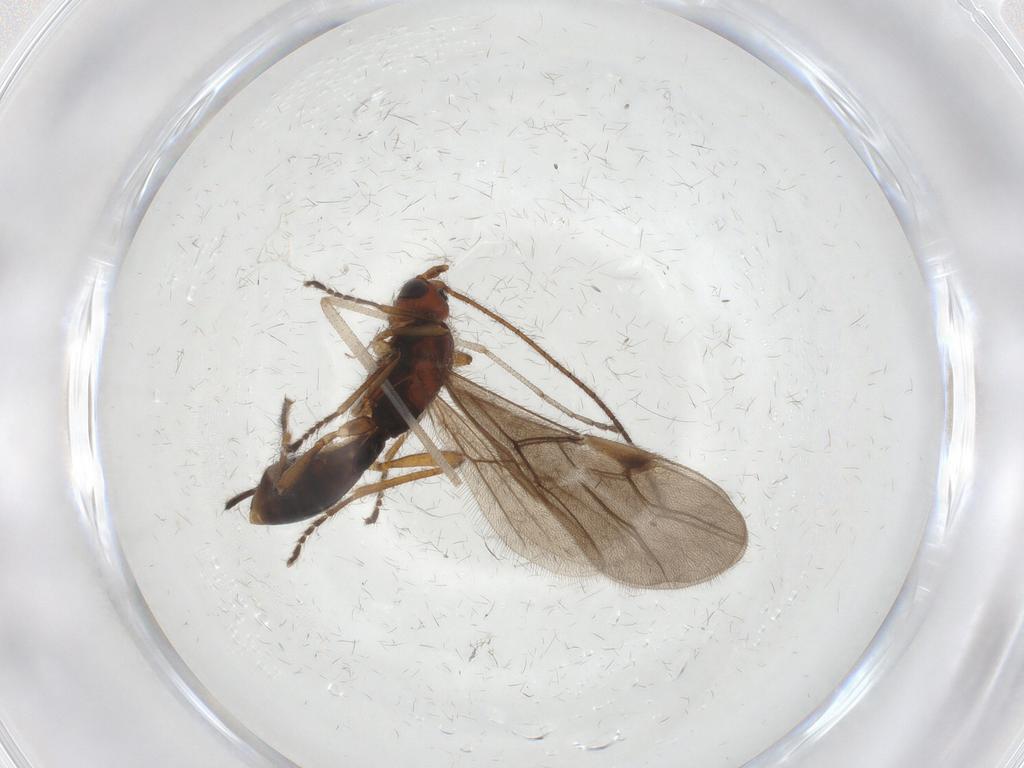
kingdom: Animalia
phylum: Arthropoda
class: Insecta
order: Hymenoptera
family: Braconidae
